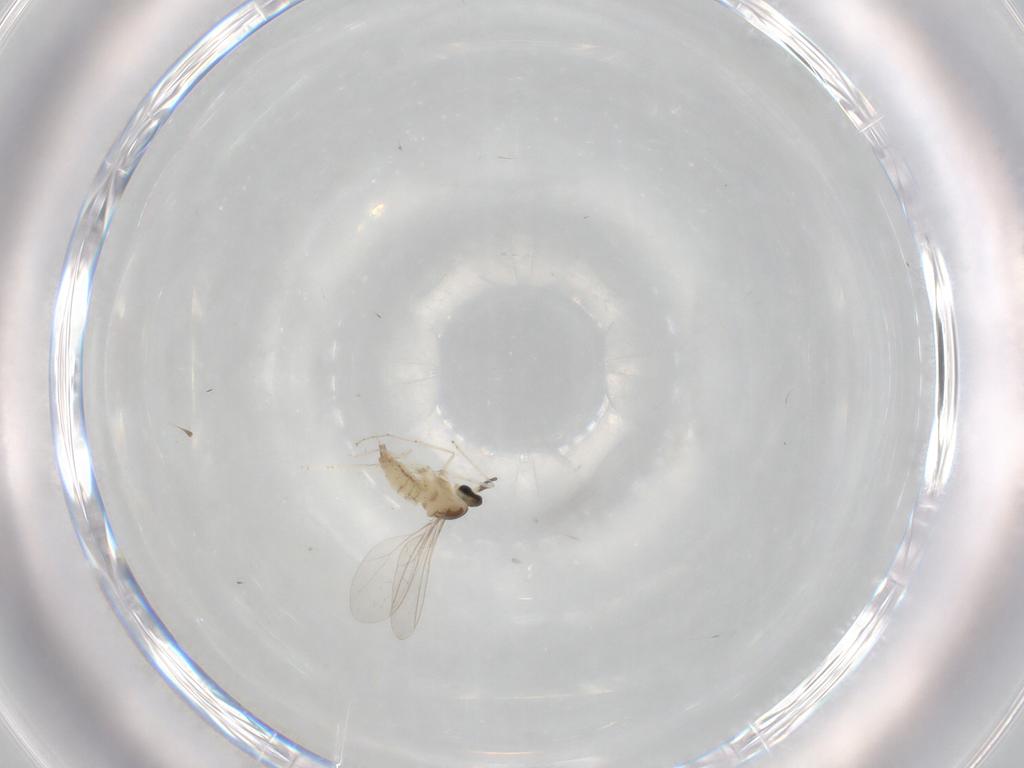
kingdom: Animalia
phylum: Arthropoda
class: Insecta
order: Diptera
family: Cecidomyiidae
